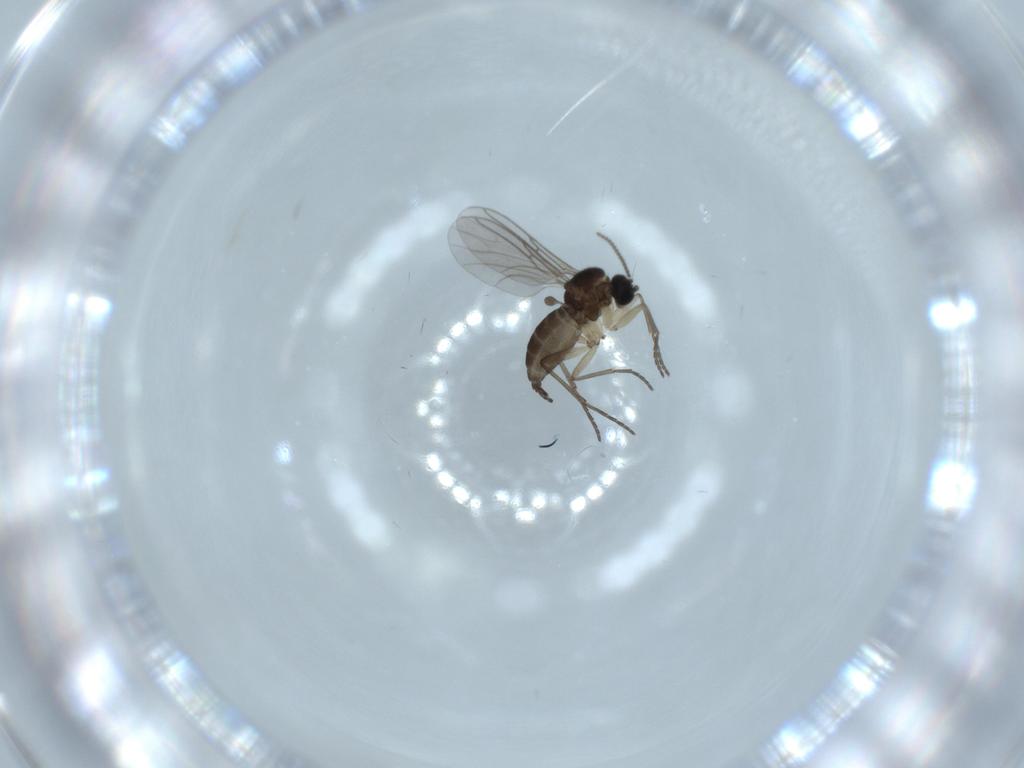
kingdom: Animalia
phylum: Arthropoda
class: Insecta
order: Diptera
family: Sciaridae
